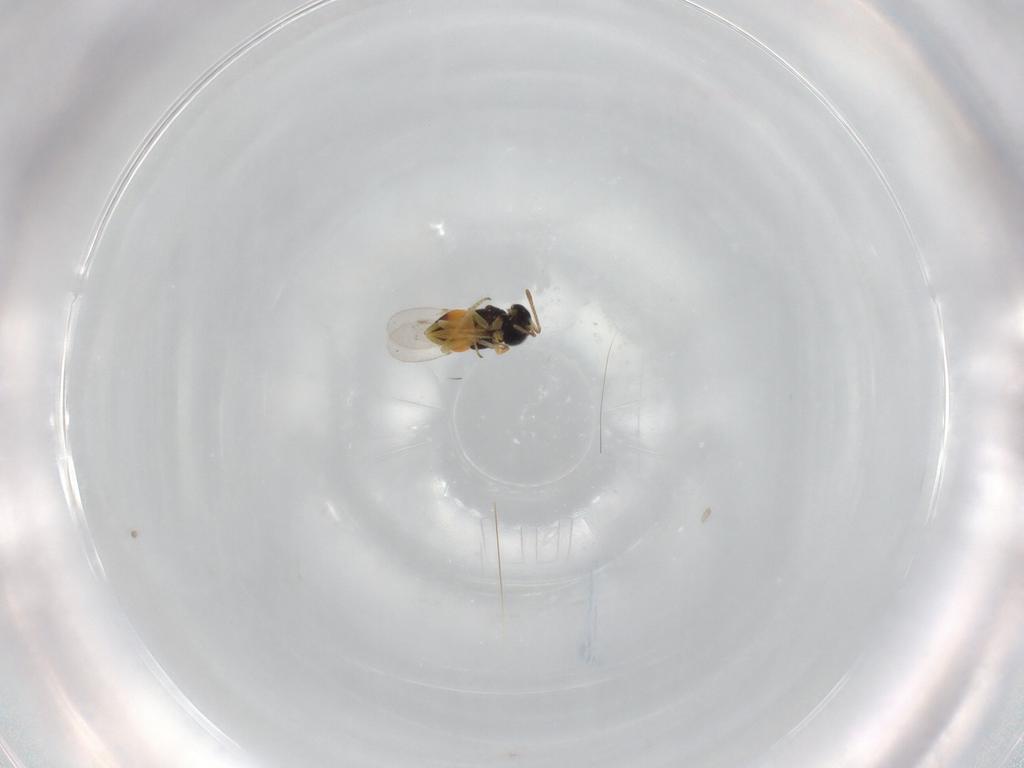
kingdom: Animalia
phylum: Arthropoda
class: Insecta
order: Hymenoptera
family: Encyrtidae
